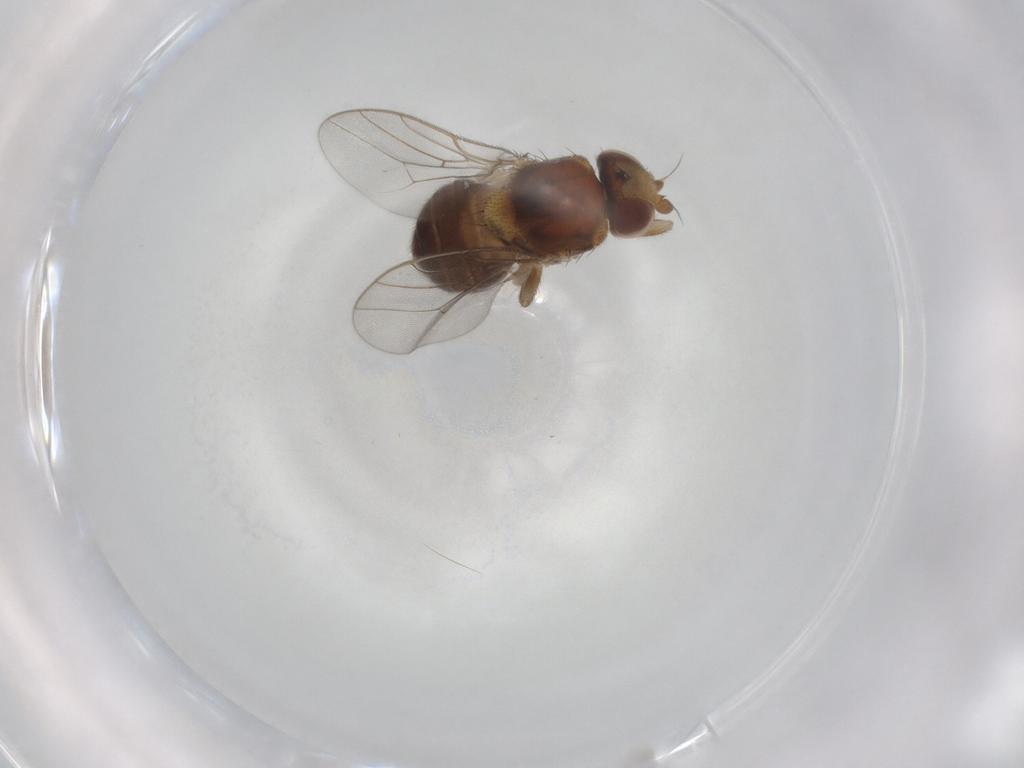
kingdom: Animalia
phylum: Arthropoda
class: Insecta
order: Diptera
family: Chloropidae
